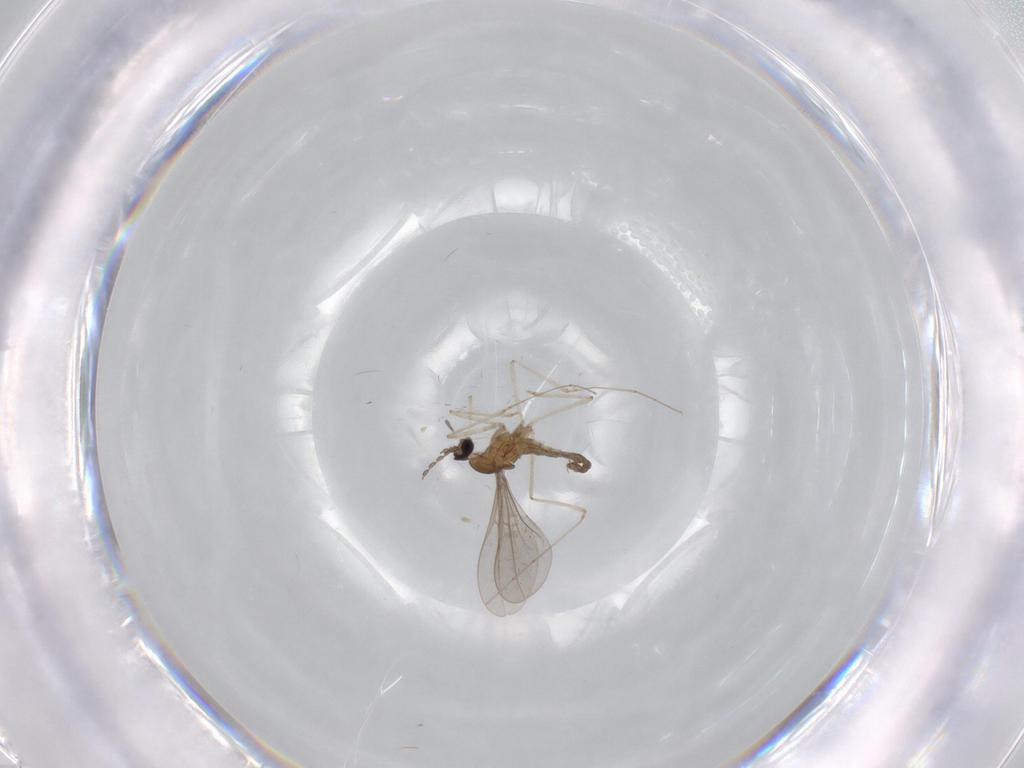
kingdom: Animalia
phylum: Arthropoda
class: Insecta
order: Diptera
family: Cecidomyiidae
